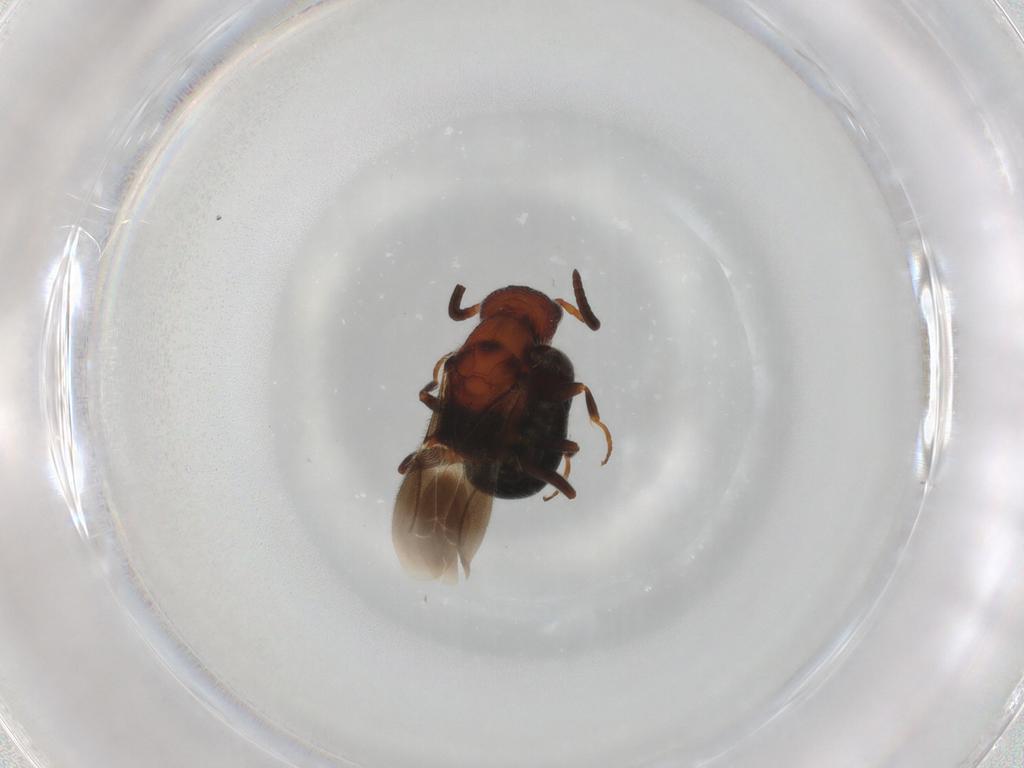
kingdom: Animalia
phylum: Arthropoda
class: Insecta
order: Hymenoptera
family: Bethylidae
